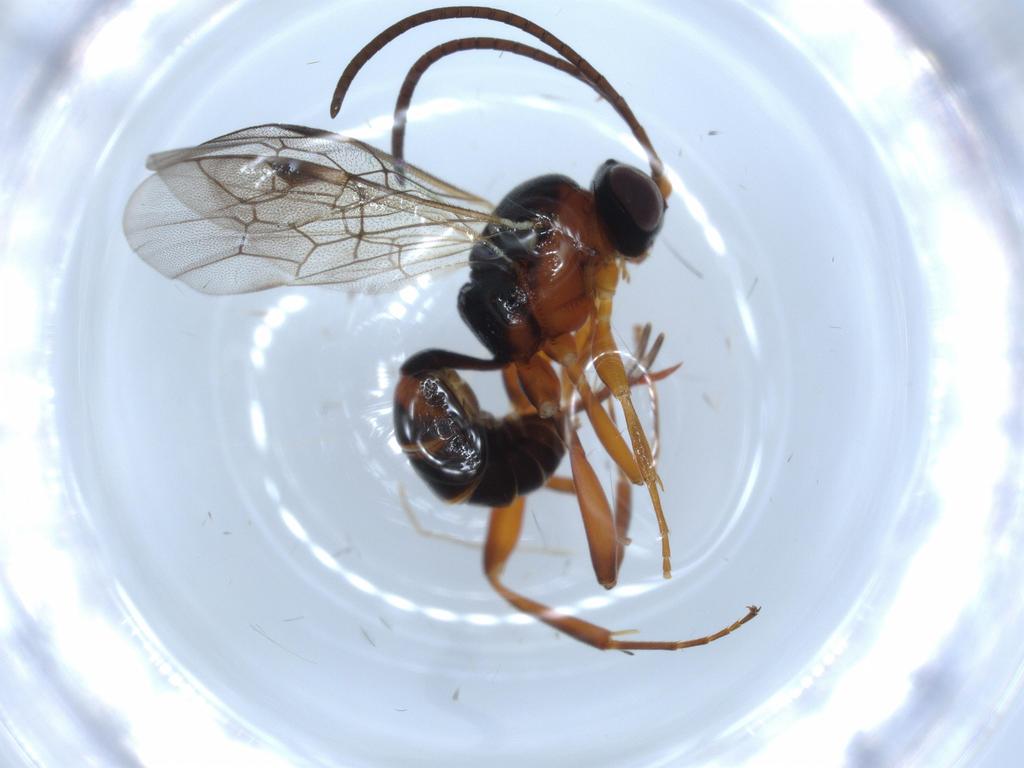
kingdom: Animalia
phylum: Arthropoda
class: Insecta
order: Hymenoptera
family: Ichneumonidae
